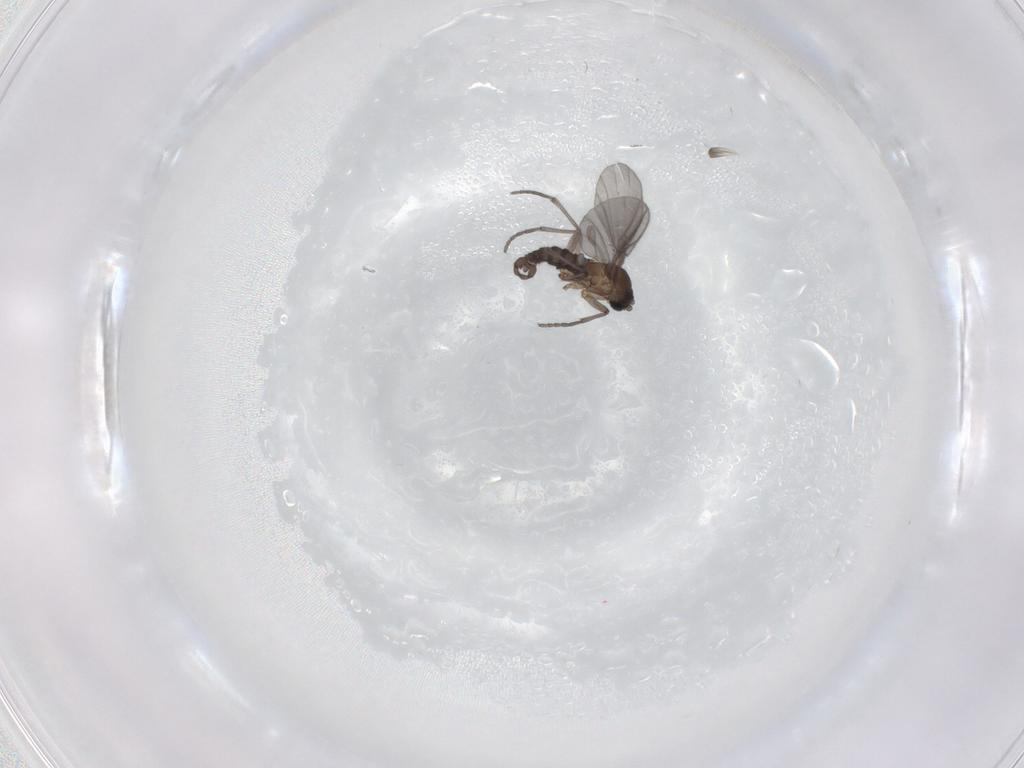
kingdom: Animalia
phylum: Arthropoda
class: Insecta
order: Diptera
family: Sciaridae
